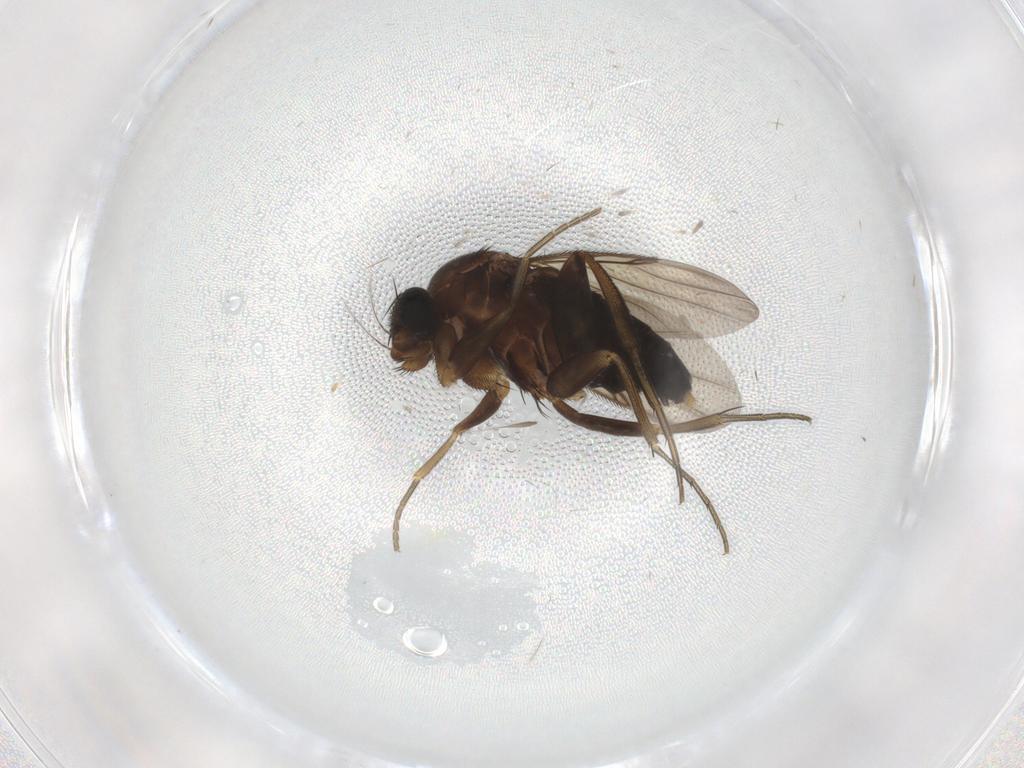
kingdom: Animalia
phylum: Arthropoda
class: Insecta
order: Diptera
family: Phoridae
